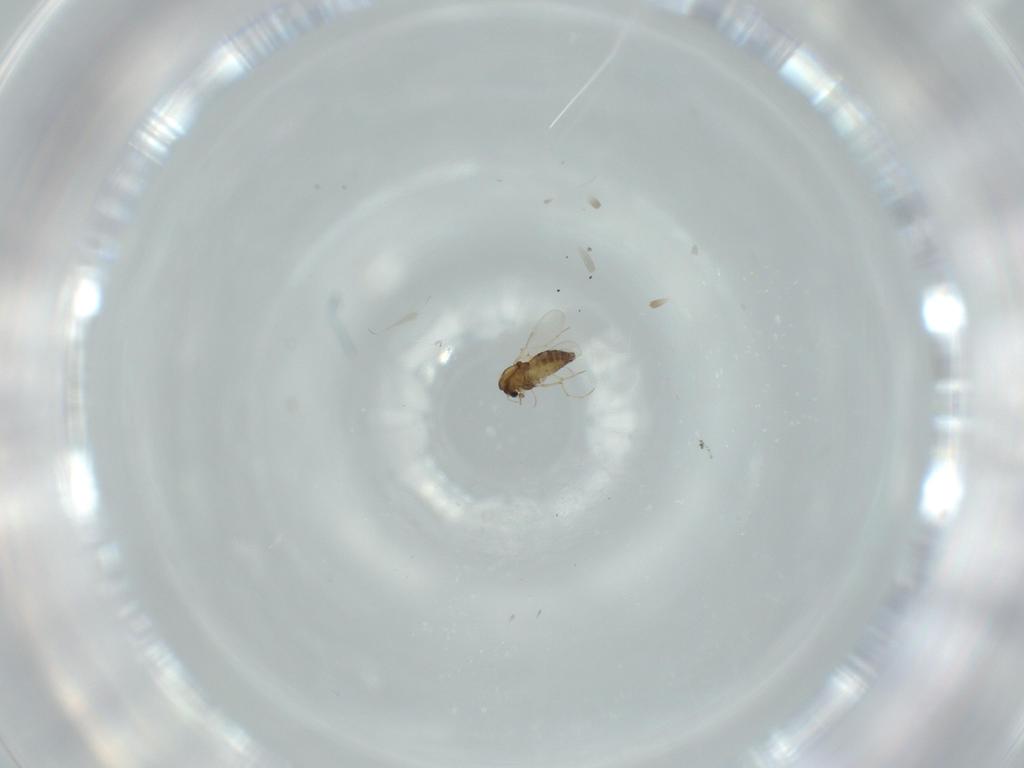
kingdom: Animalia
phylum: Arthropoda
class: Insecta
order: Diptera
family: Chironomidae
